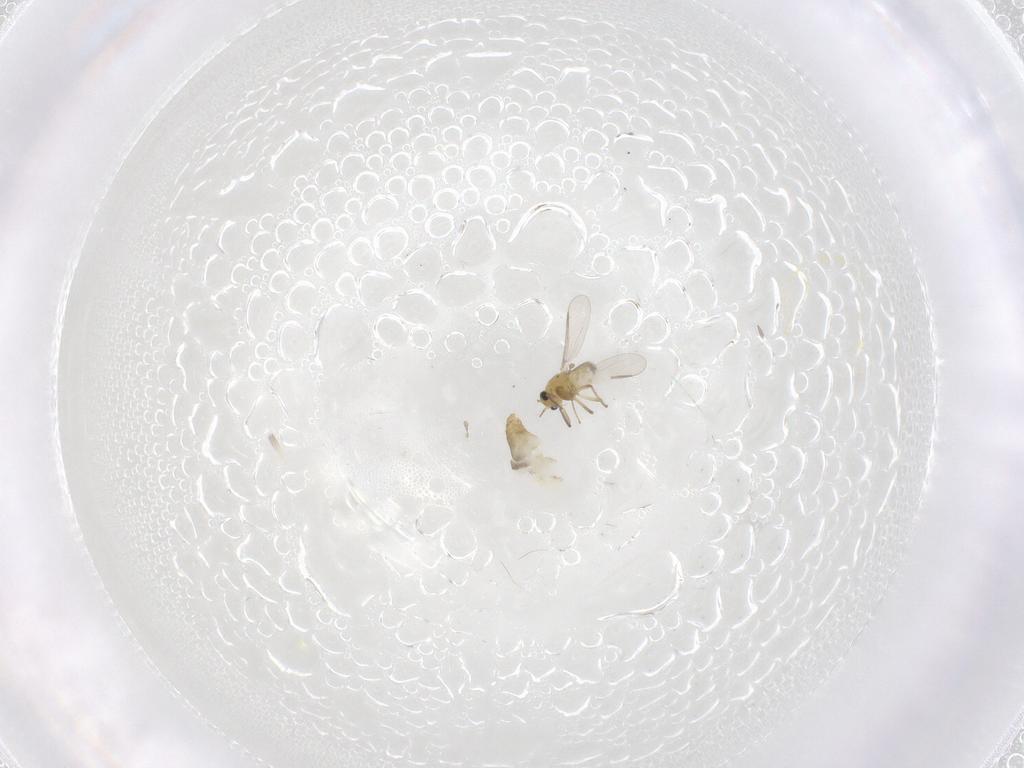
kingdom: Animalia
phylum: Arthropoda
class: Insecta
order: Diptera
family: Chironomidae
